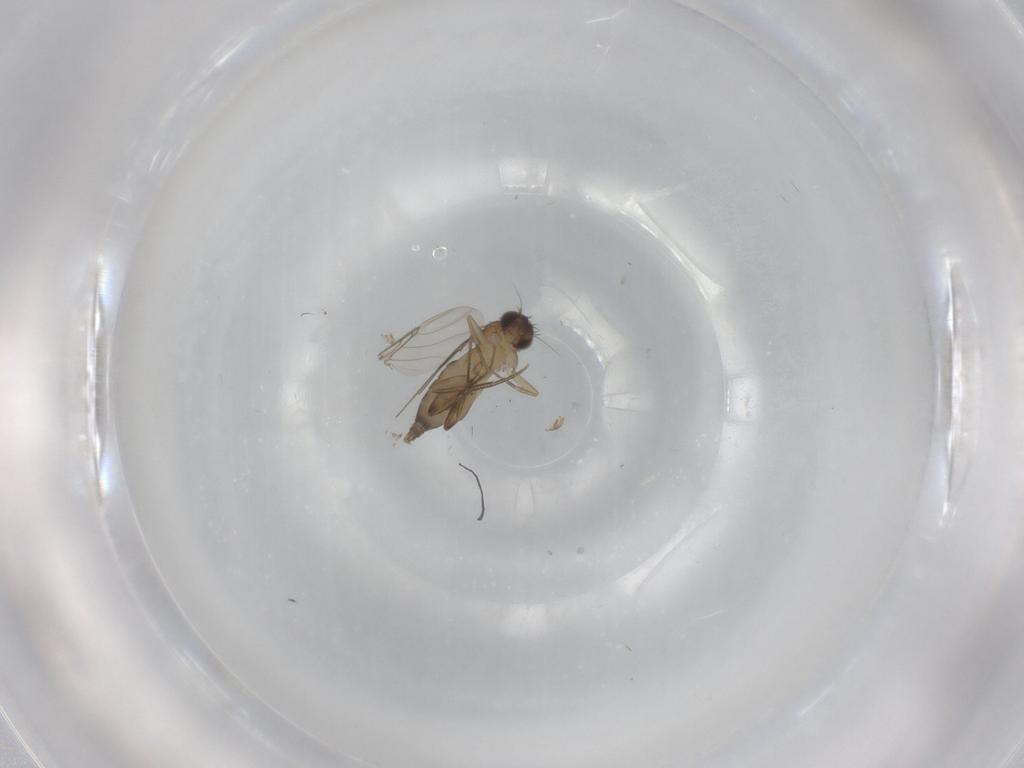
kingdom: Animalia
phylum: Arthropoda
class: Insecta
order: Diptera
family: Phoridae
